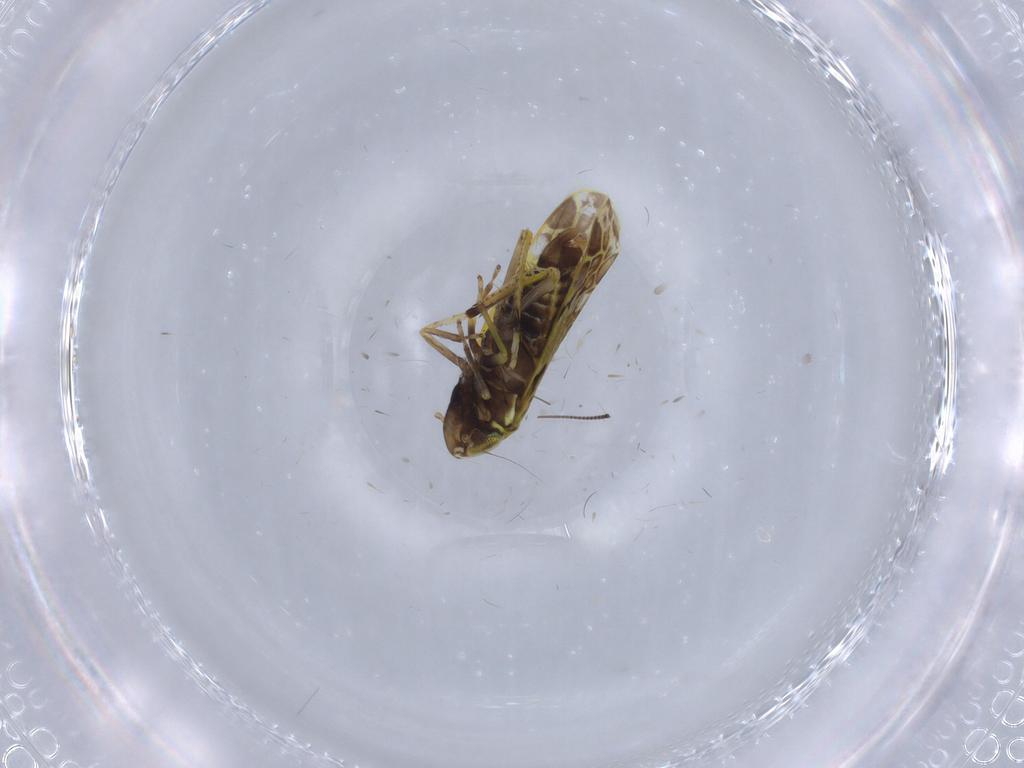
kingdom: Animalia
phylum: Arthropoda
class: Insecta
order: Hemiptera
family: Cicadellidae
